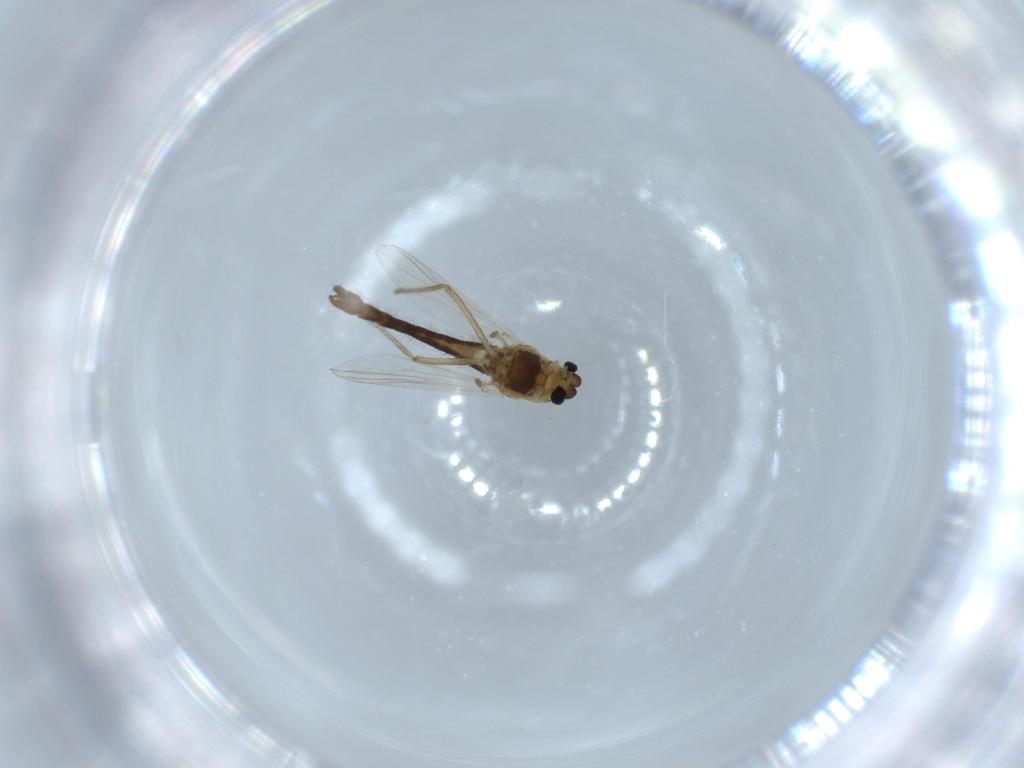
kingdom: Animalia
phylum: Arthropoda
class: Insecta
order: Diptera
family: Chironomidae
